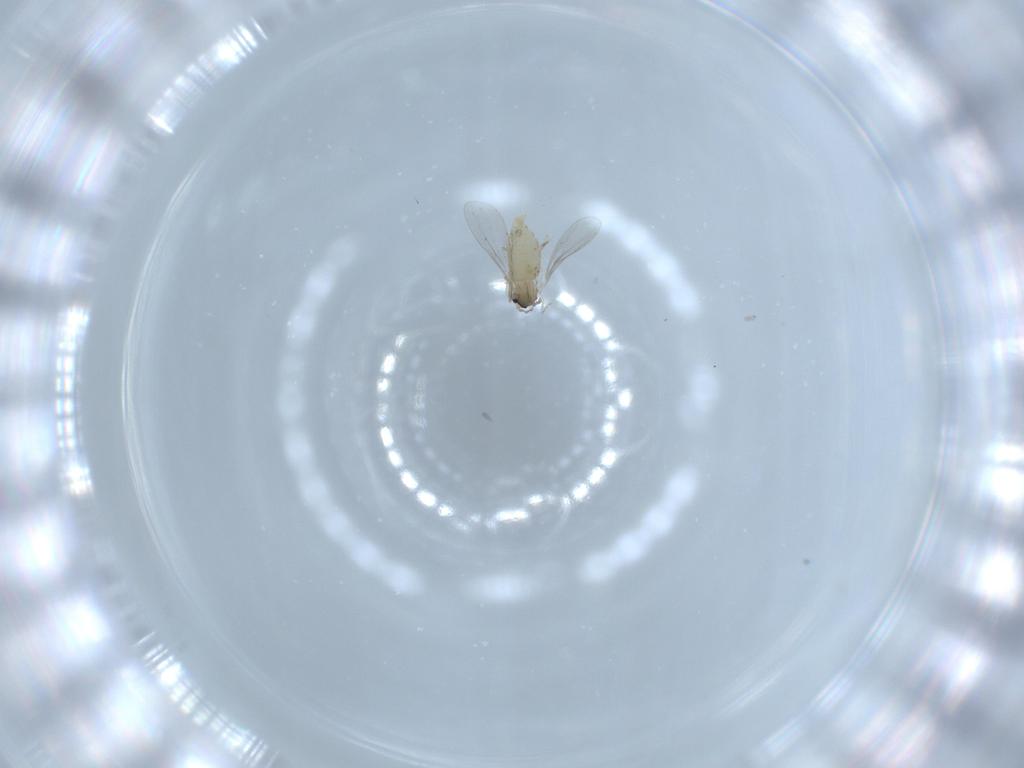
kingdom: Animalia
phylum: Arthropoda
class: Insecta
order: Diptera
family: Cecidomyiidae
